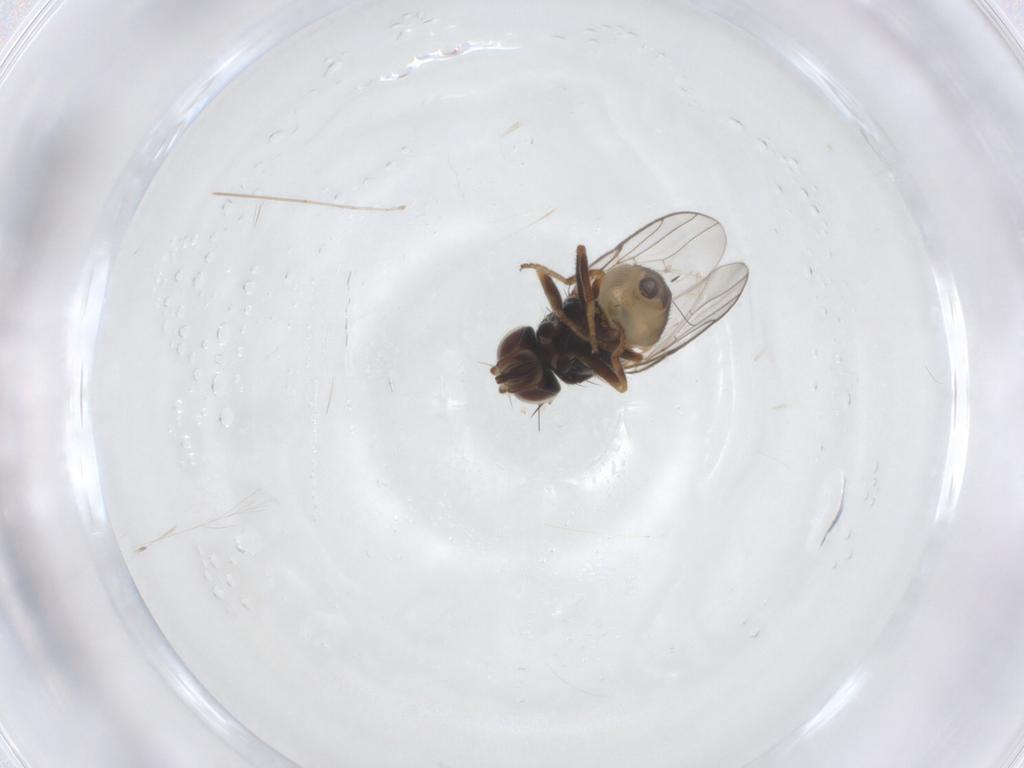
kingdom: Animalia
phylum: Arthropoda
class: Insecta
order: Diptera
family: Chloropidae
